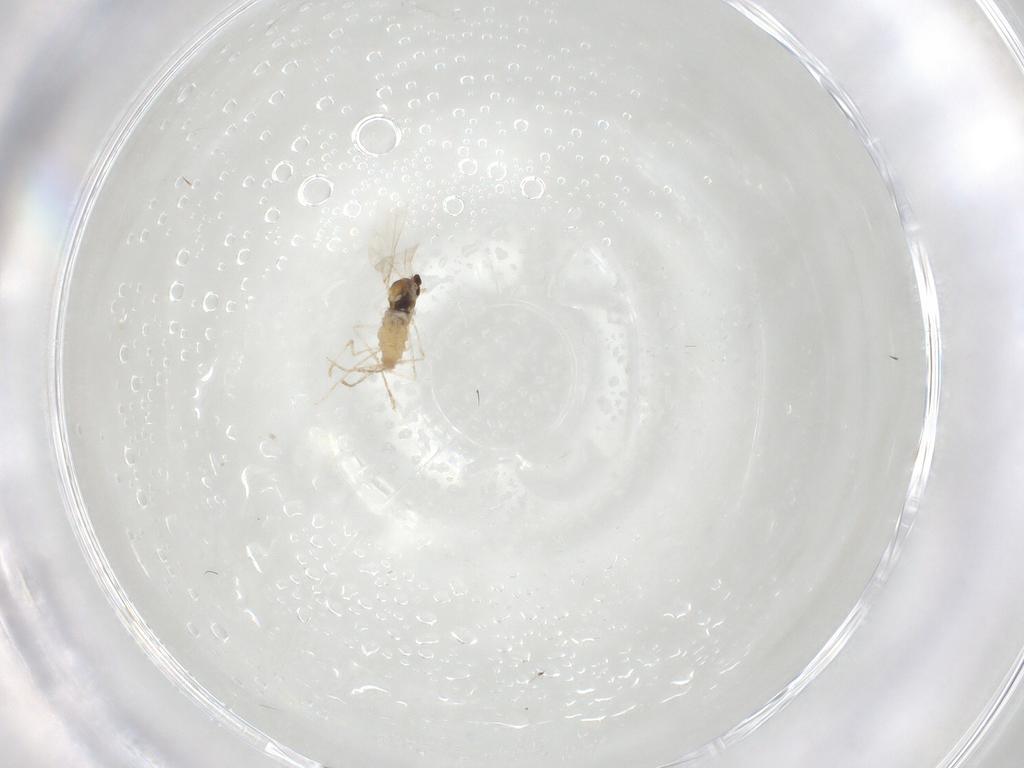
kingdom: Animalia
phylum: Arthropoda
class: Insecta
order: Diptera
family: Cecidomyiidae
